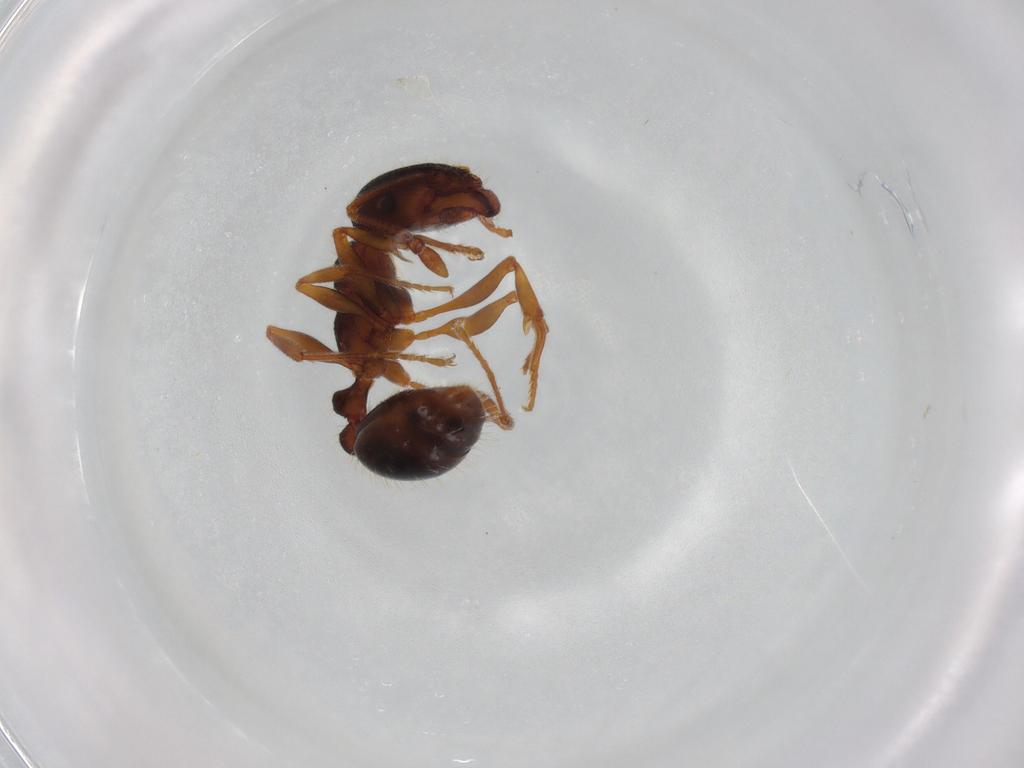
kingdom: Animalia
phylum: Arthropoda
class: Insecta
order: Hymenoptera
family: Formicidae
